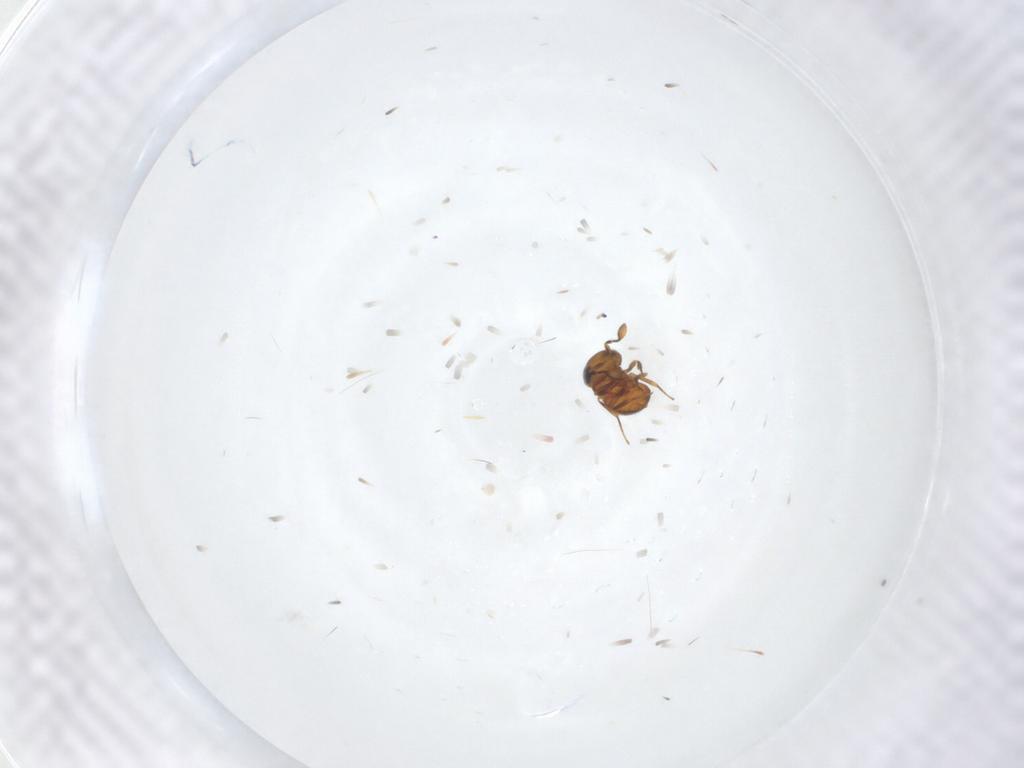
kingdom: Animalia
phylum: Arthropoda
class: Insecta
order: Hymenoptera
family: Scelionidae
